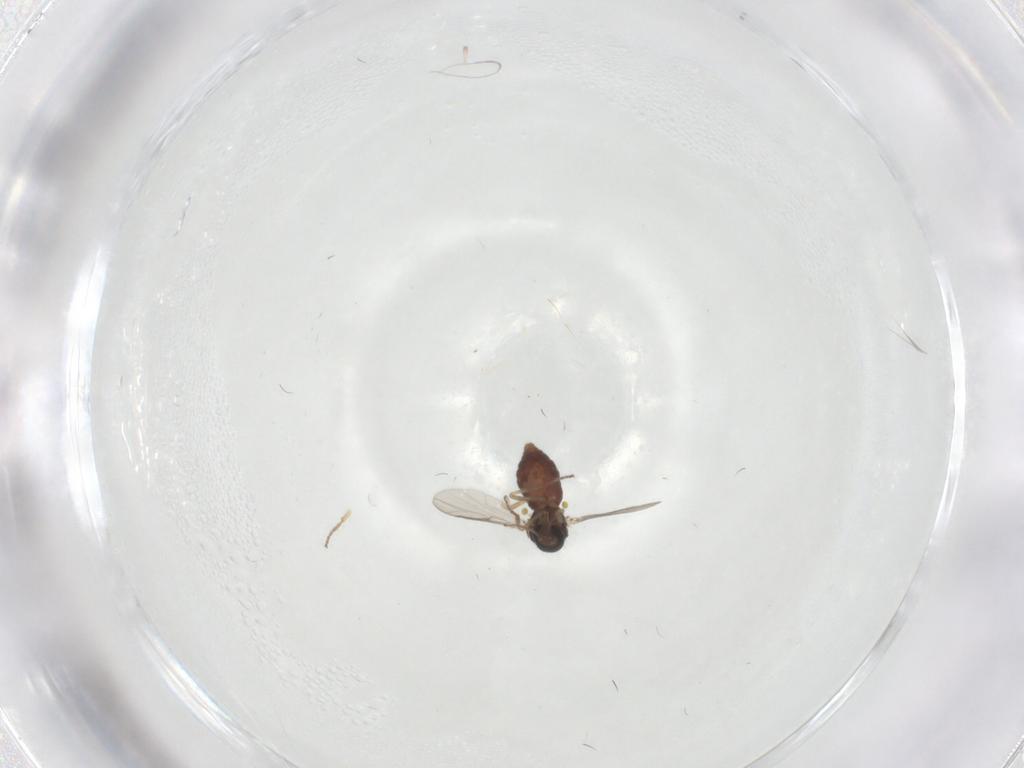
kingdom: Animalia
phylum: Arthropoda
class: Insecta
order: Diptera
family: Ceratopogonidae
